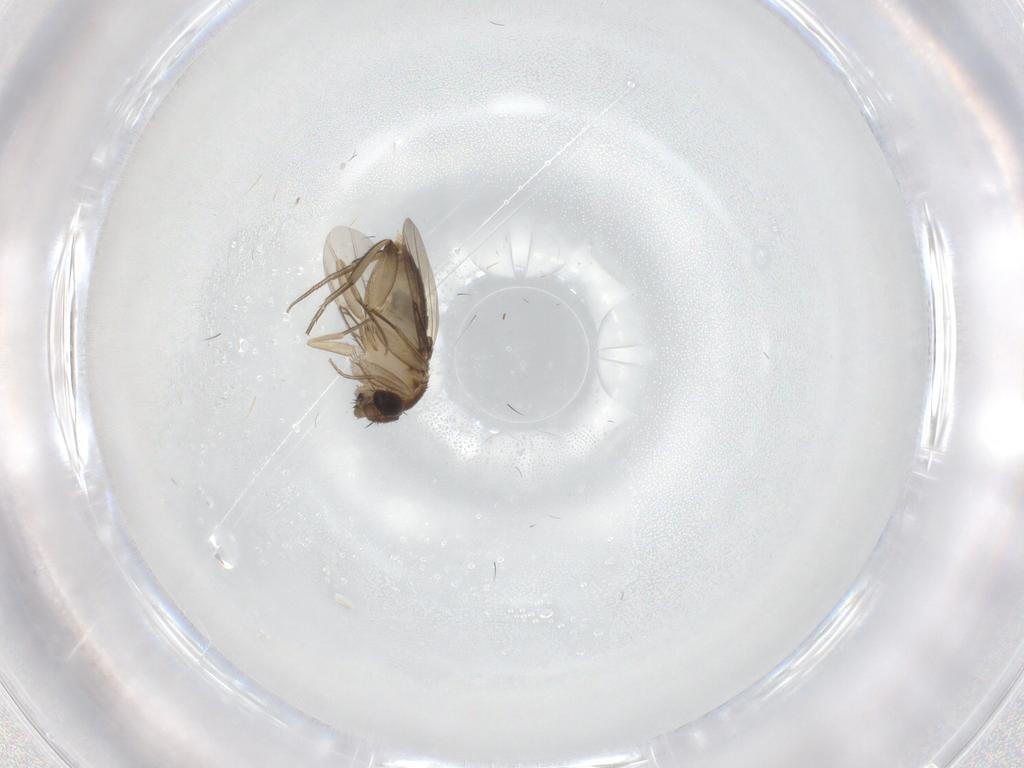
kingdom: Animalia
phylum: Arthropoda
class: Insecta
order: Diptera
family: Phoridae
